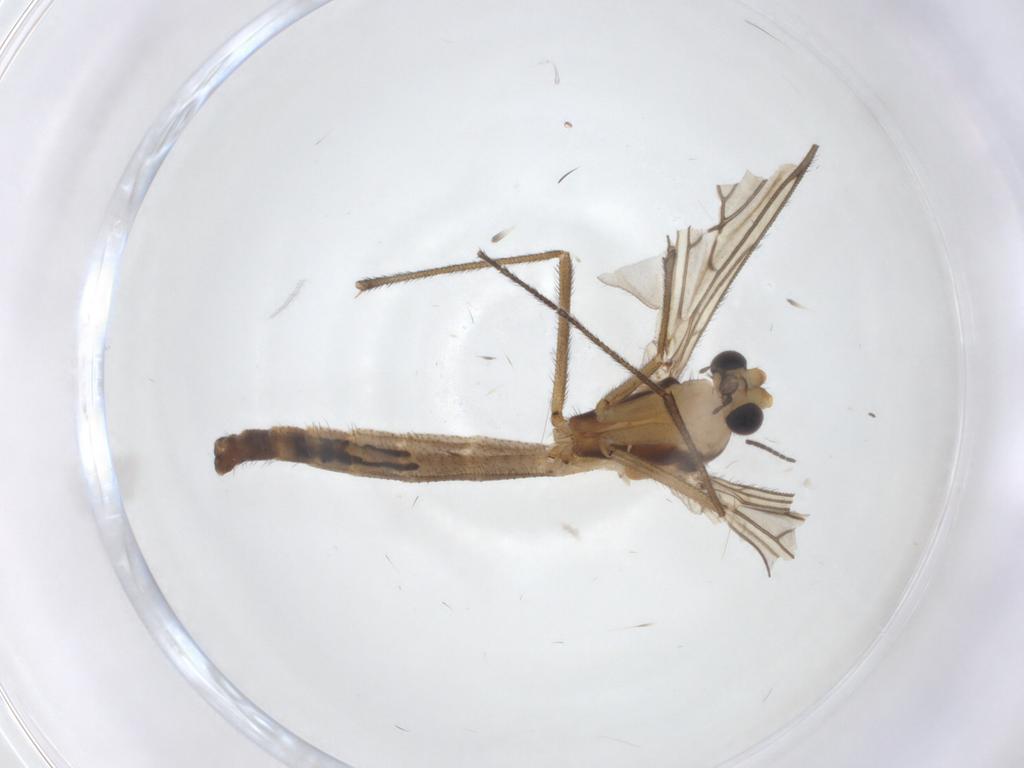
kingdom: Animalia
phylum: Arthropoda
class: Insecta
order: Diptera
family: Keroplatidae
